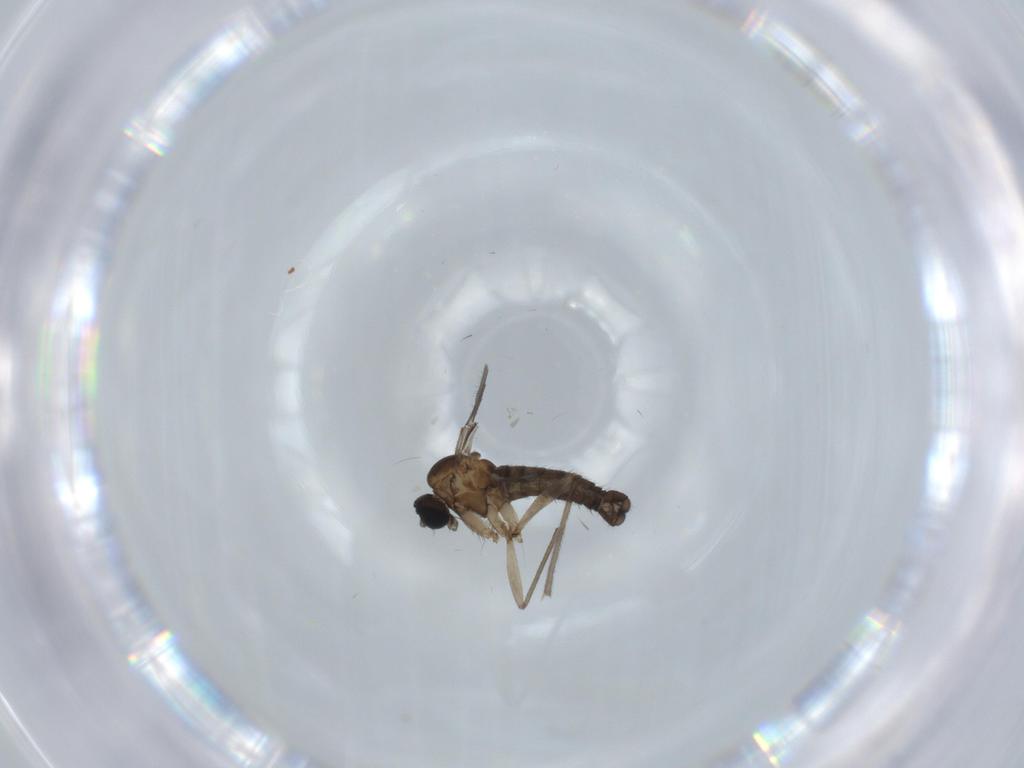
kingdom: Animalia
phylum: Arthropoda
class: Insecta
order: Diptera
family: Sciaridae
